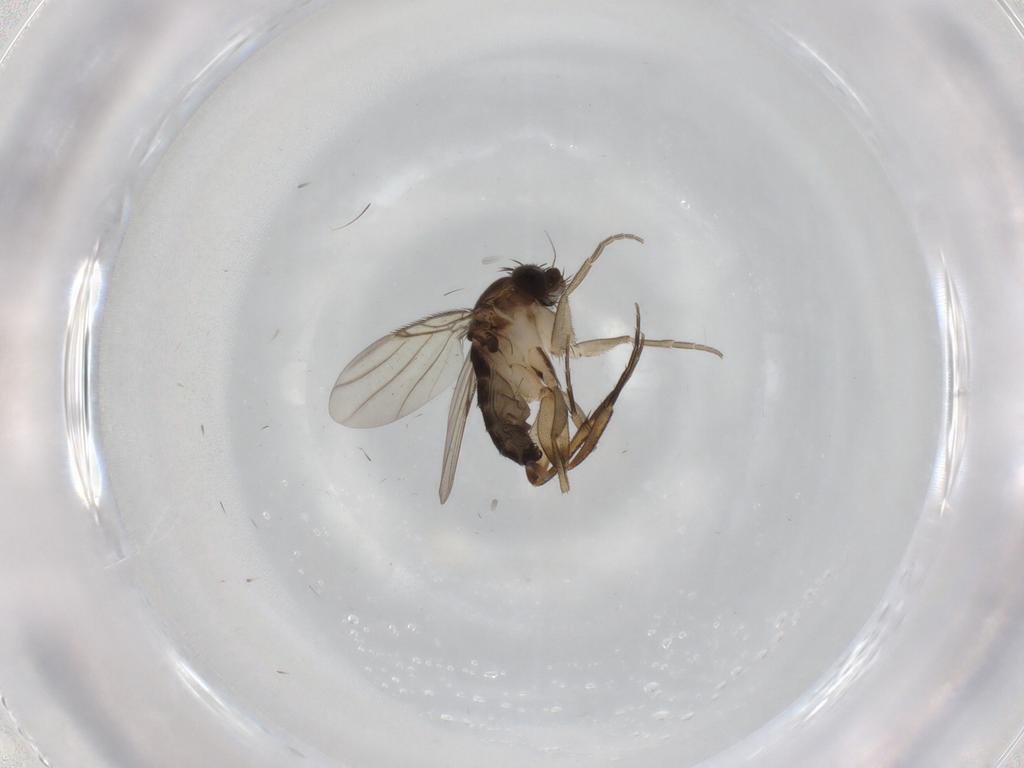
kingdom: Animalia
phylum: Arthropoda
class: Insecta
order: Diptera
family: Phoridae
